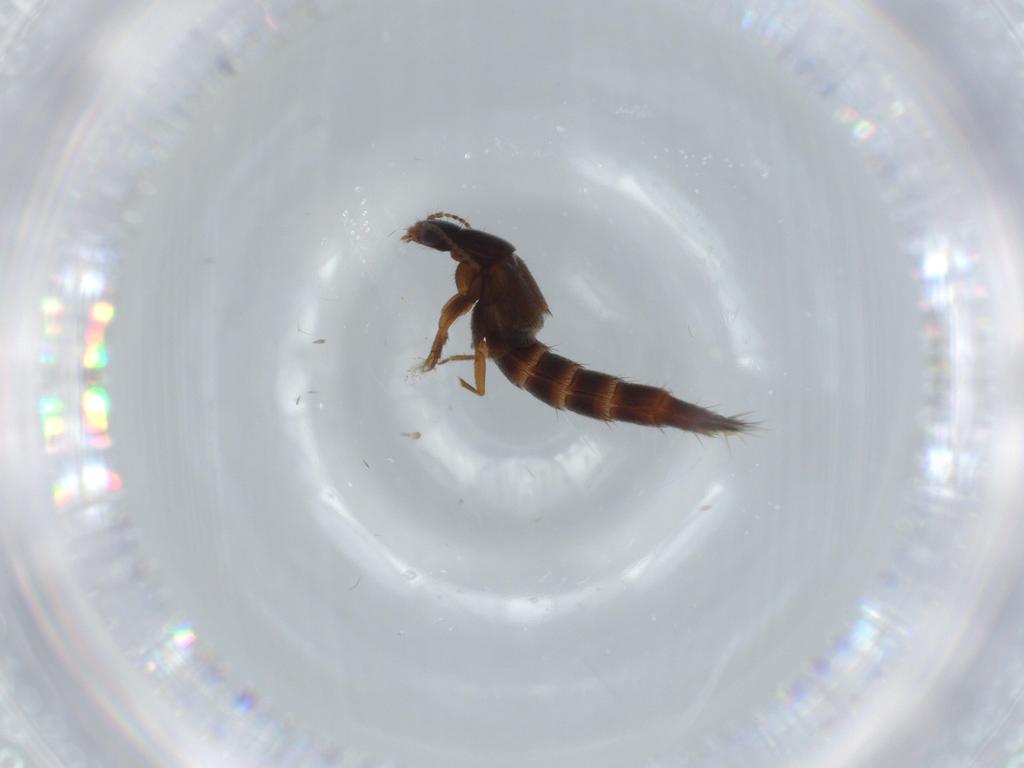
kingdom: Animalia
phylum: Arthropoda
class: Insecta
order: Coleoptera
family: Staphylinidae
